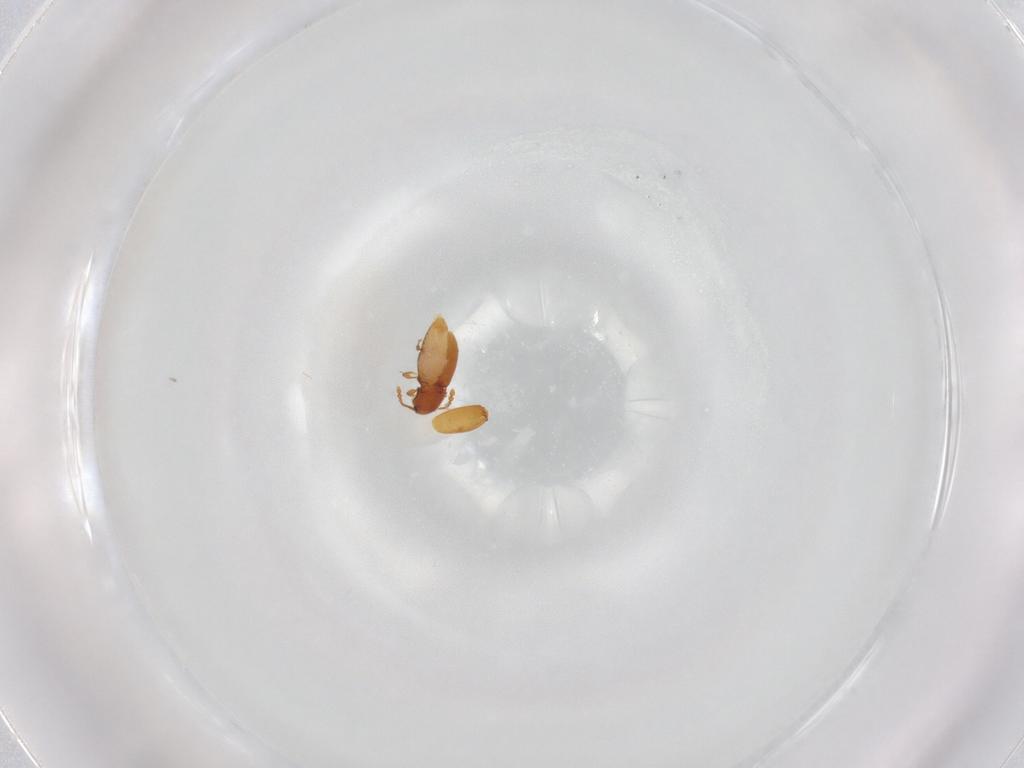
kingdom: Animalia
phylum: Arthropoda
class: Insecta
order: Coleoptera
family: Staphylinidae
